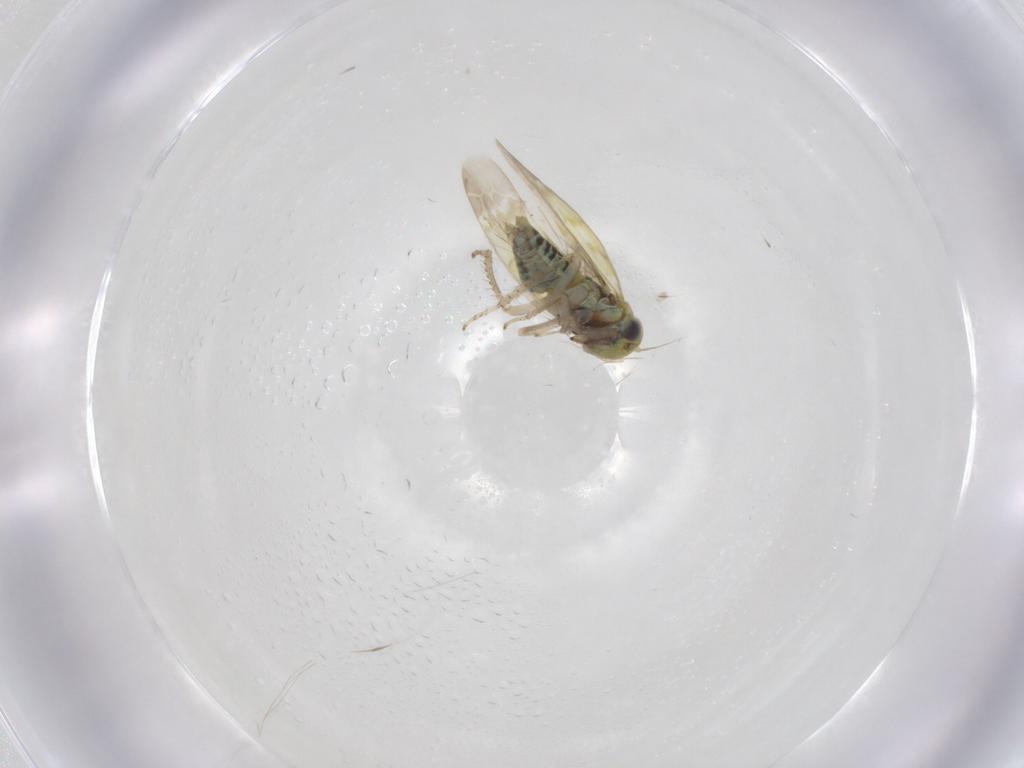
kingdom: Animalia
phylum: Arthropoda
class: Insecta
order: Hemiptera
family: Cicadellidae
